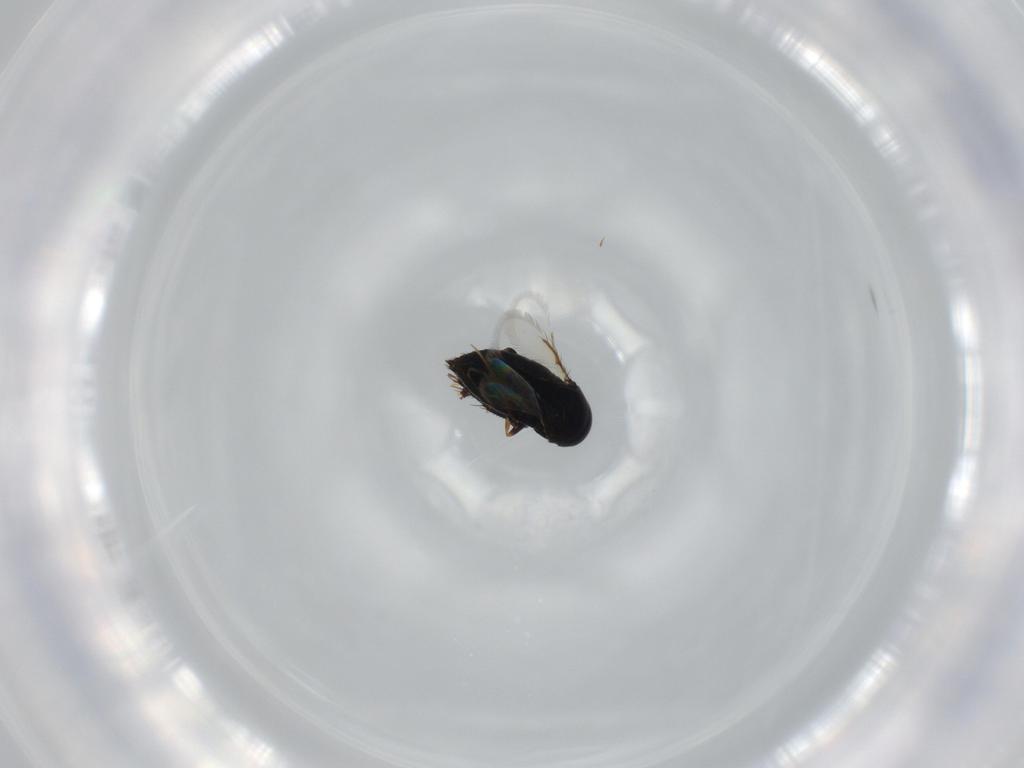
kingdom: Animalia
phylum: Arthropoda
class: Insecta
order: Hymenoptera
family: Signiphoridae
